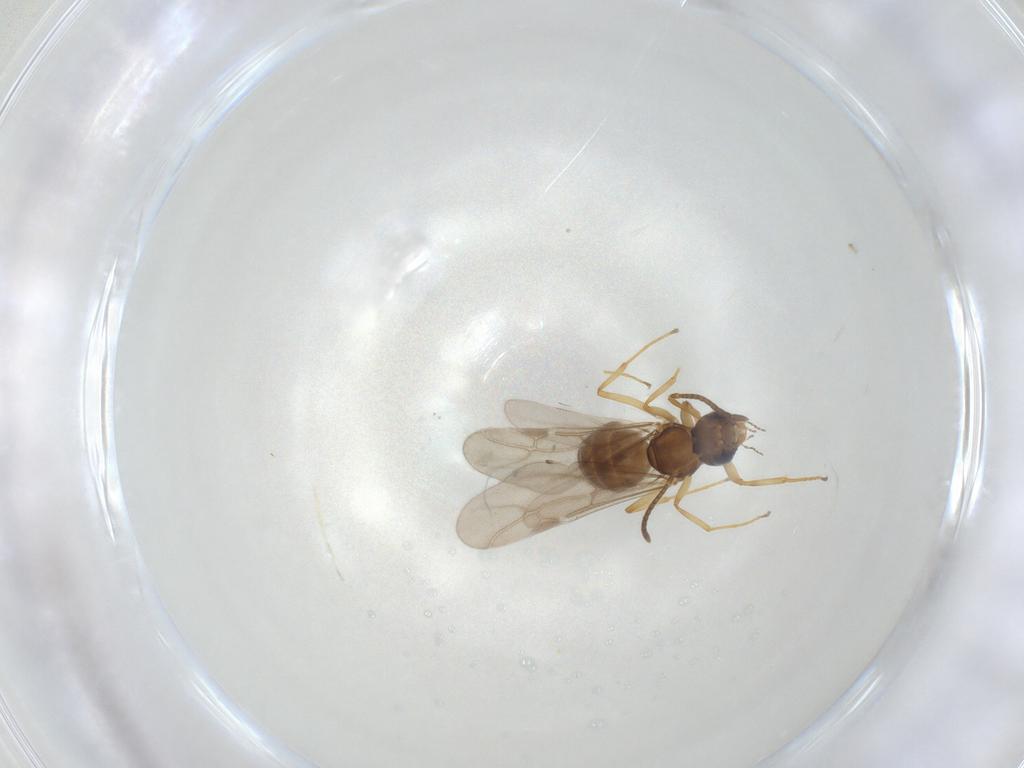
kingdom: Animalia
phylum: Arthropoda
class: Insecta
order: Hymenoptera
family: Formicidae
